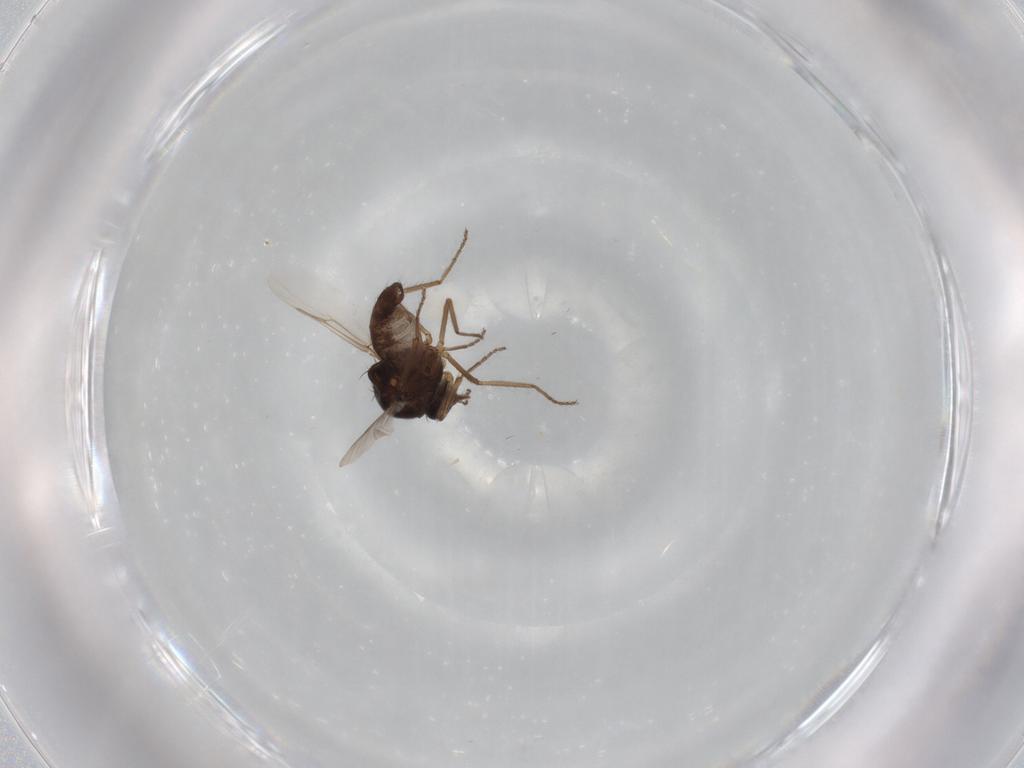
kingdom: Animalia
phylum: Arthropoda
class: Insecta
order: Diptera
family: Ceratopogonidae
